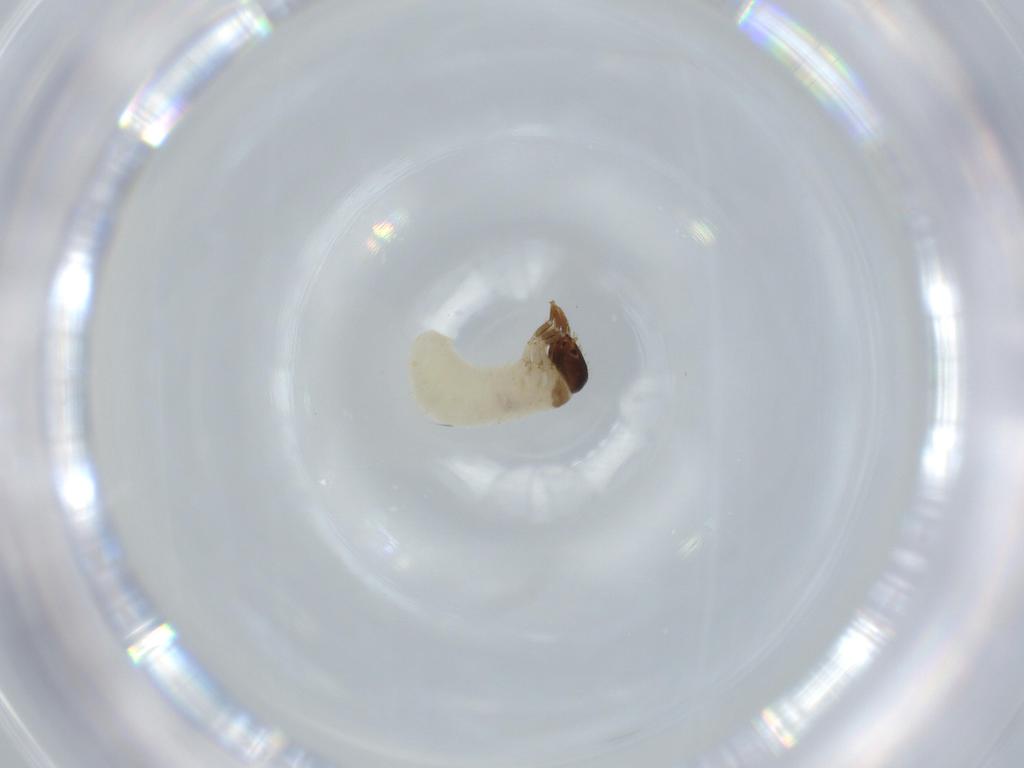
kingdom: Animalia
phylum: Arthropoda
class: Insecta
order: Coleoptera
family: Chrysomelidae
